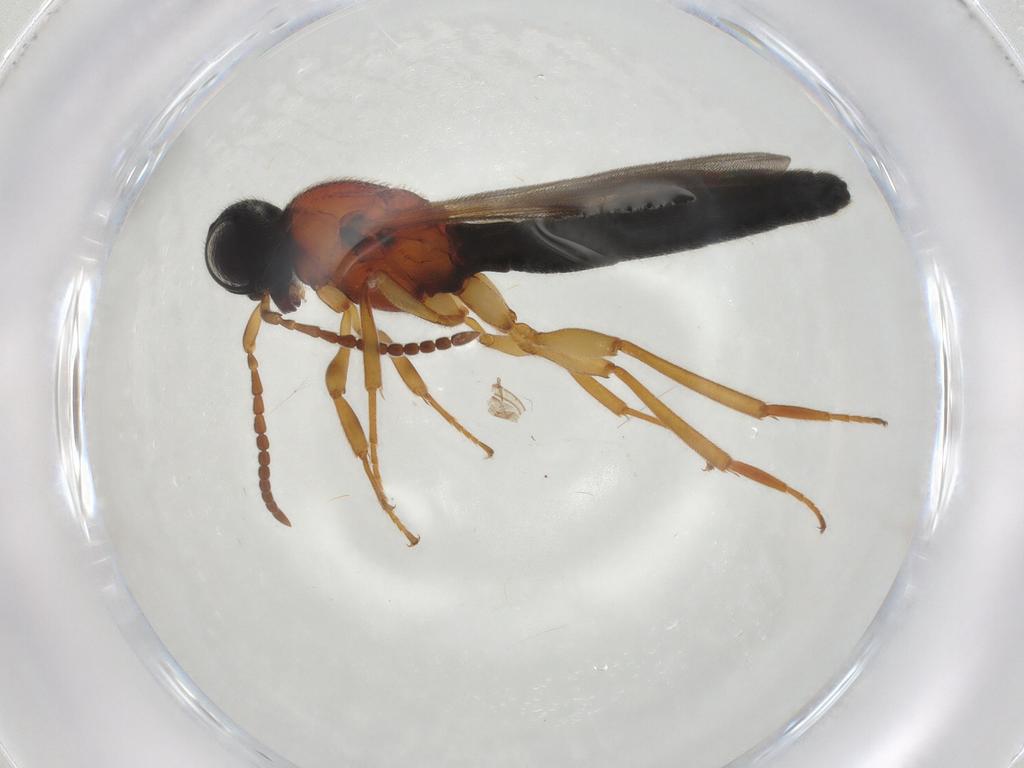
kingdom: Animalia
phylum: Arthropoda
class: Insecta
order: Hymenoptera
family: Scelionidae
